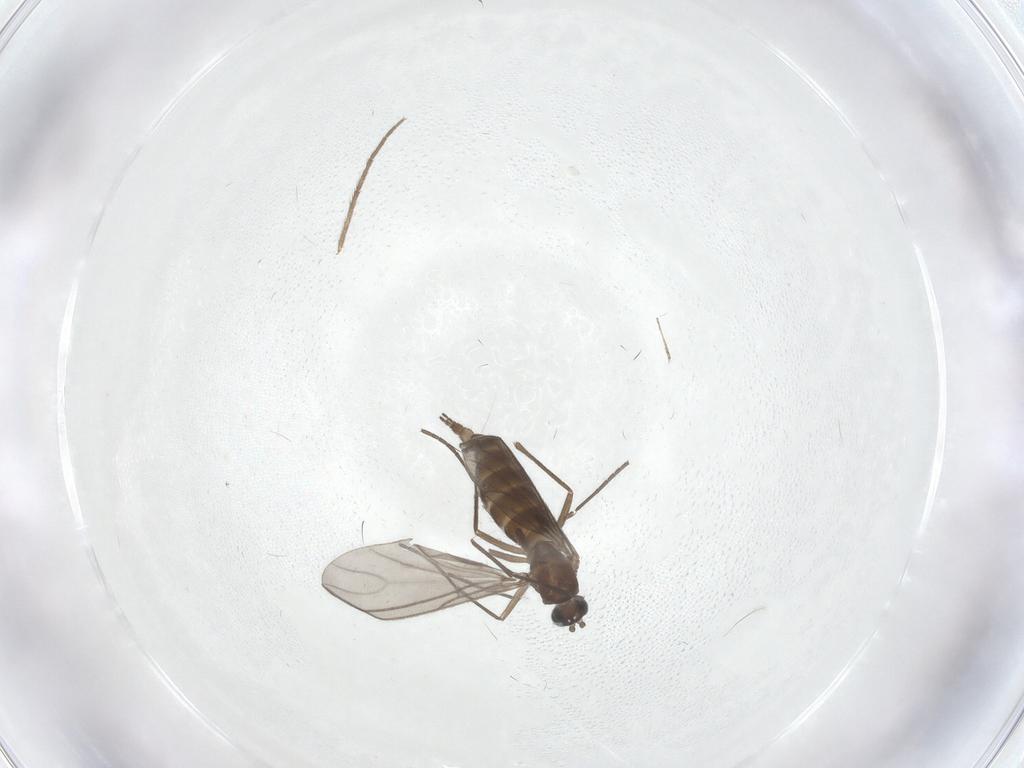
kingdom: Animalia
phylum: Arthropoda
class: Insecta
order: Diptera
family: Sciaridae
